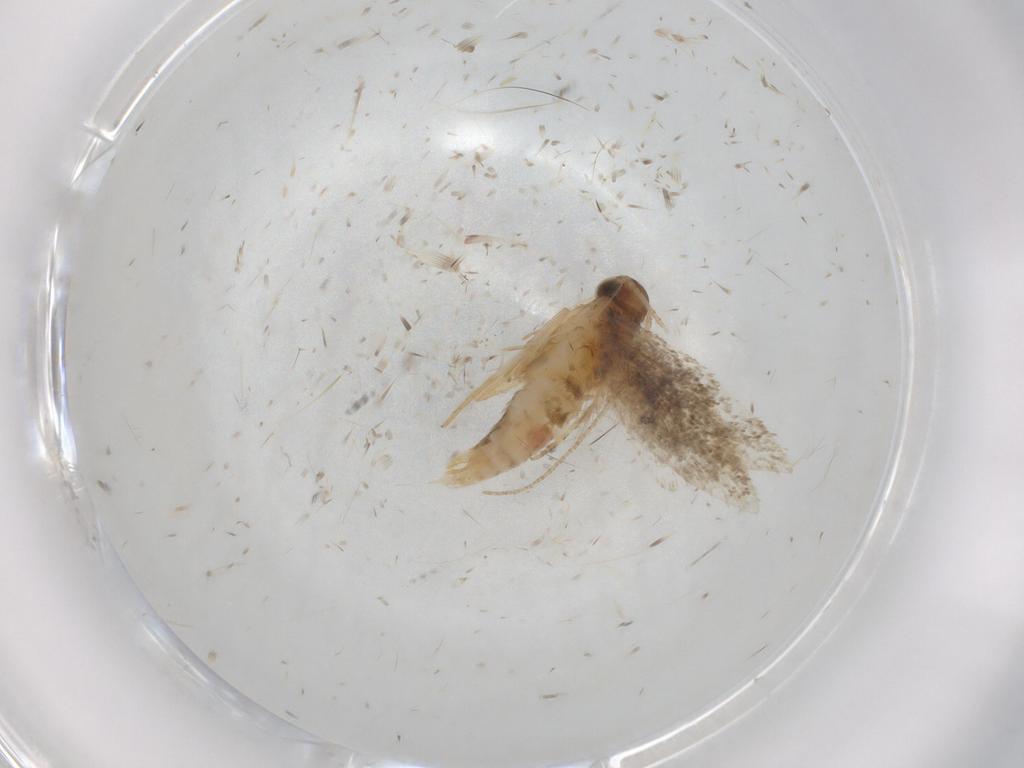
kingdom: Animalia
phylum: Arthropoda
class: Insecta
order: Lepidoptera
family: Gelechiidae
